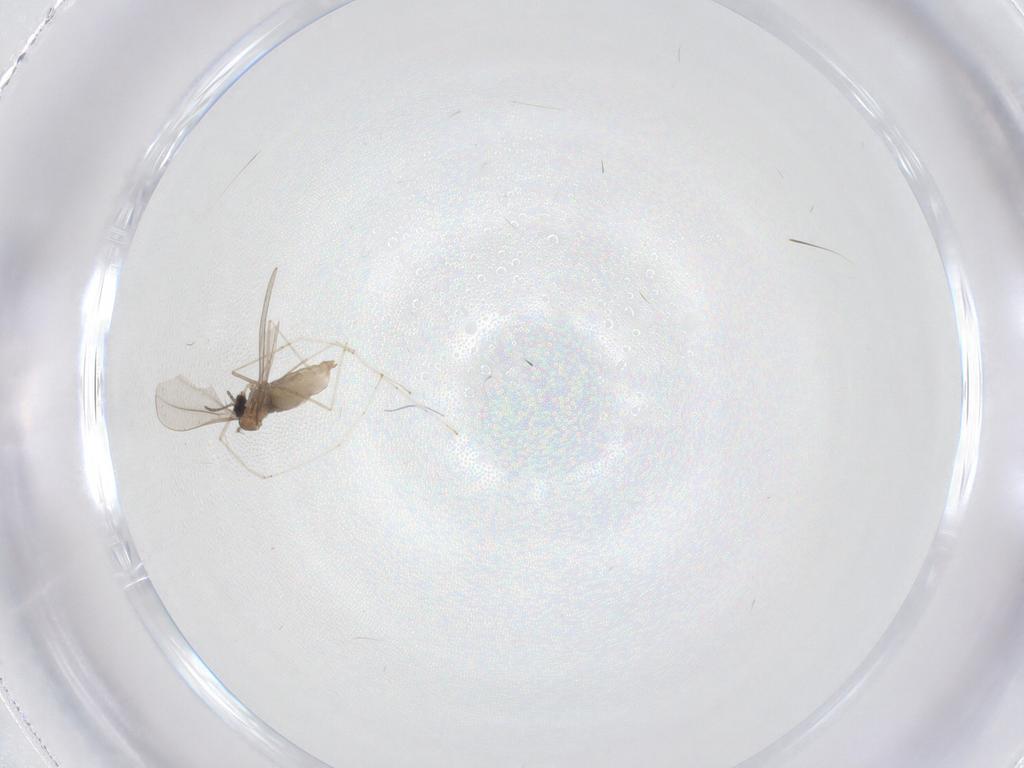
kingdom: Animalia
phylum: Arthropoda
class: Insecta
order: Diptera
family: Cecidomyiidae
